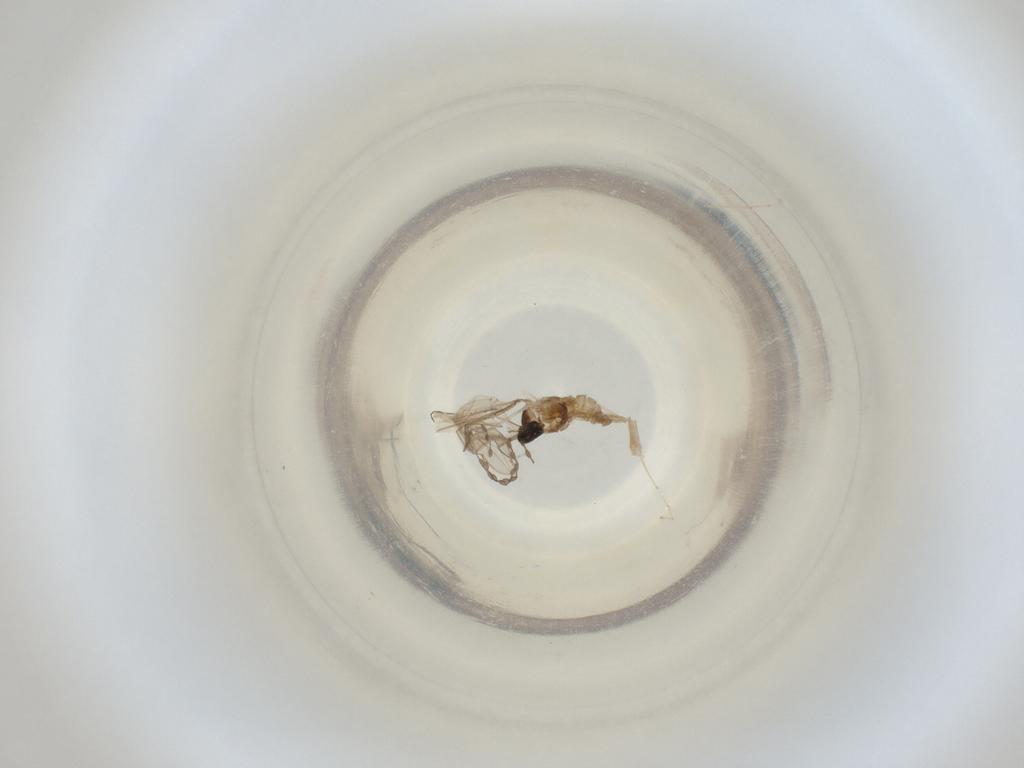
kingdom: Animalia
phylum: Arthropoda
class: Insecta
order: Diptera
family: Cecidomyiidae
